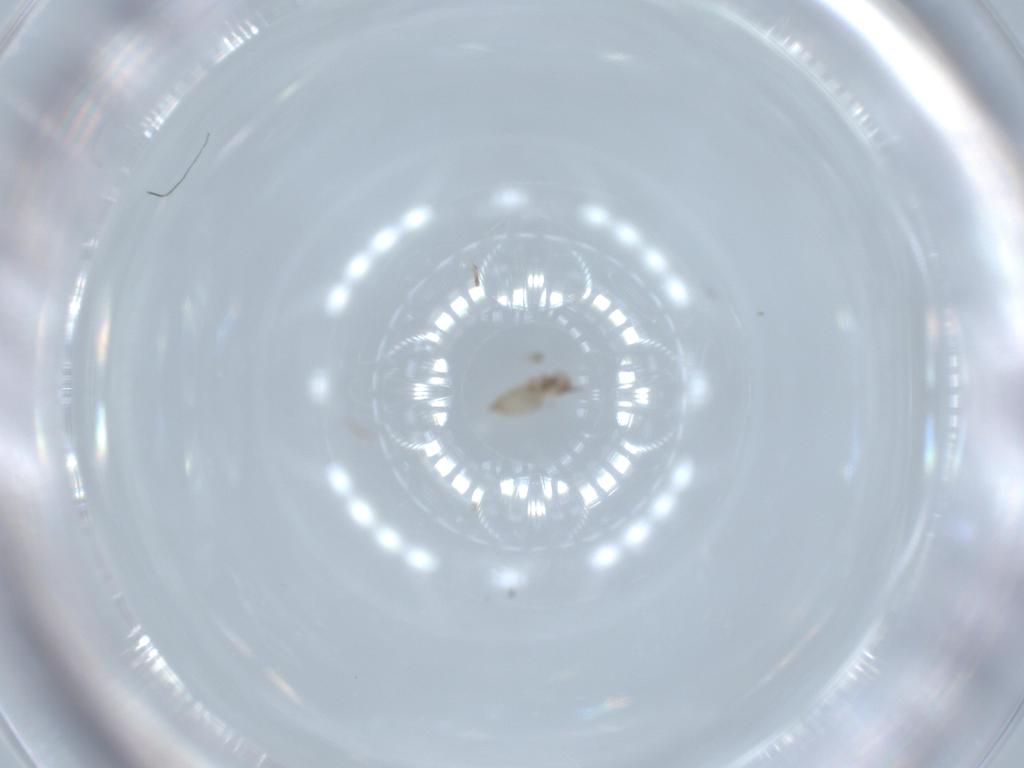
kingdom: Animalia
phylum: Arthropoda
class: Insecta
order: Diptera
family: Cecidomyiidae
